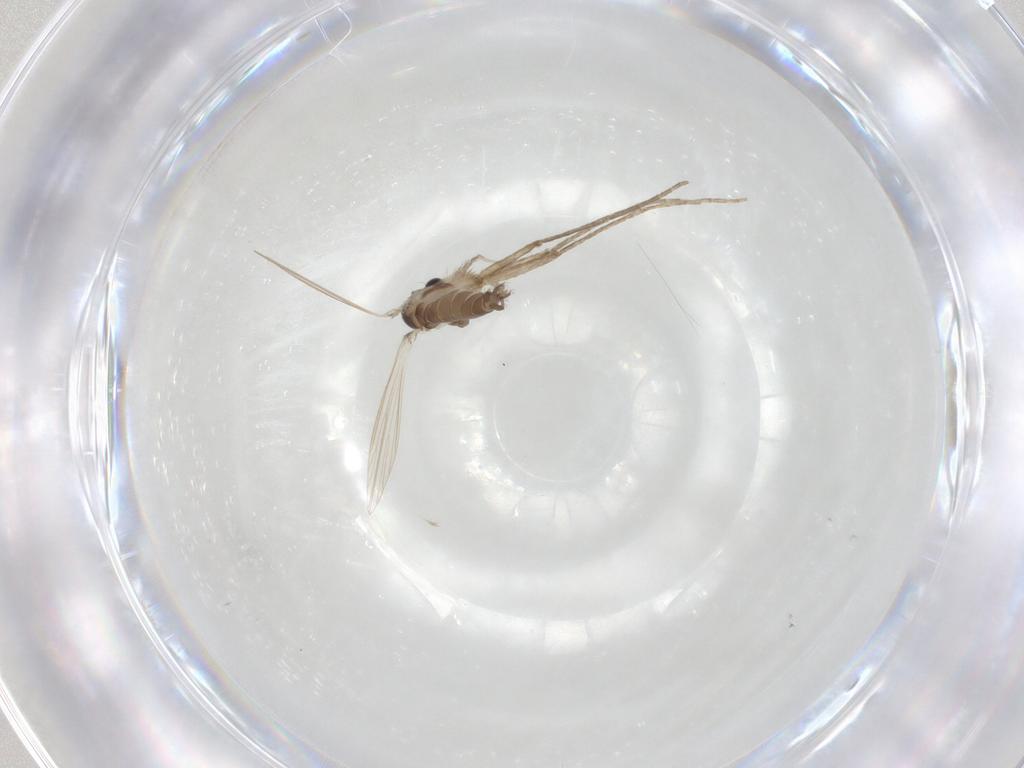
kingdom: Animalia
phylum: Arthropoda
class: Insecta
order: Diptera
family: Psychodidae
